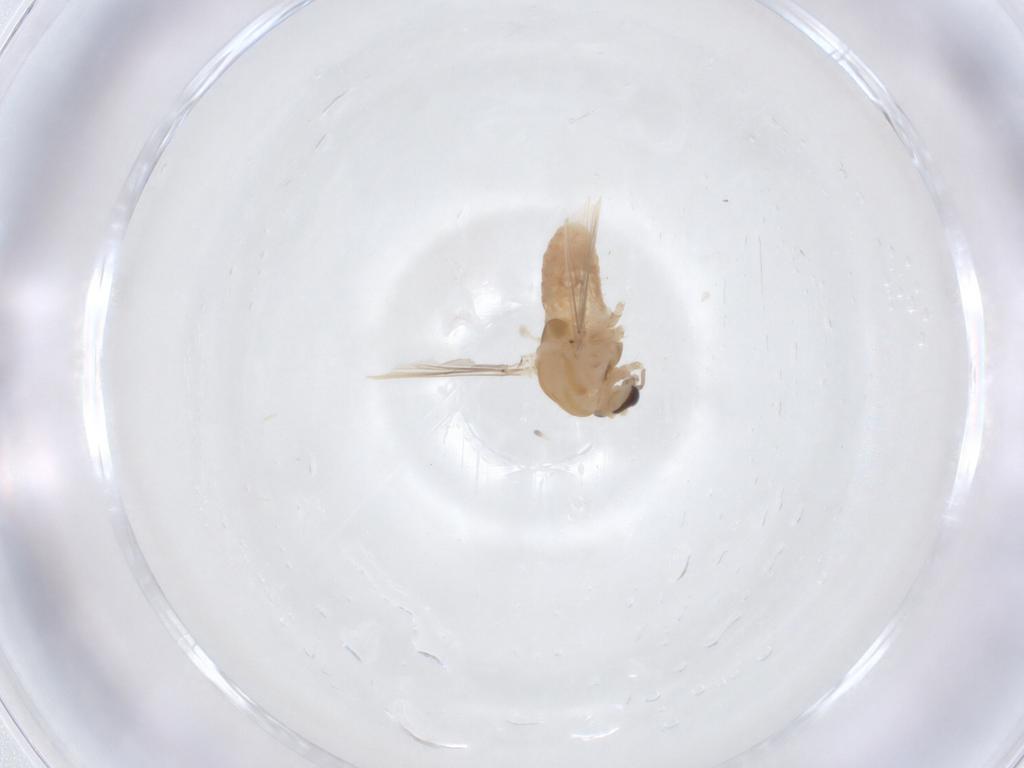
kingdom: Animalia
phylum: Arthropoda
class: Insecta
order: Diptera
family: Chironomidae
